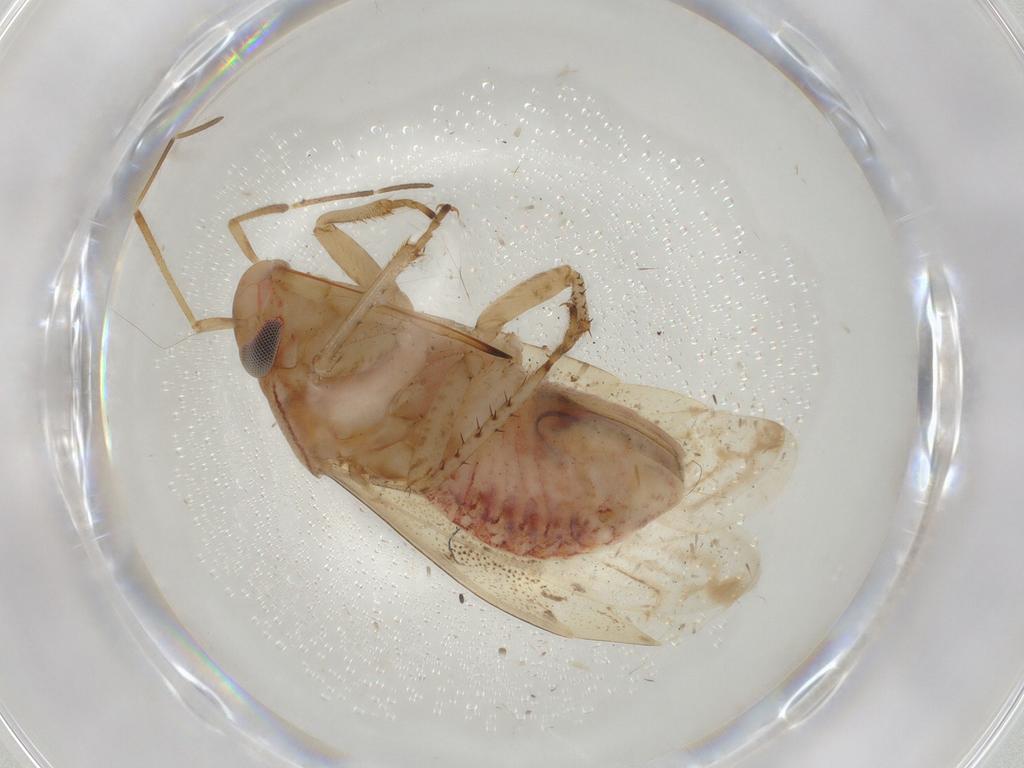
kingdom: Animalia
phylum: Arthropoda
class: Insecta
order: Hemiptera
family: Miridae
